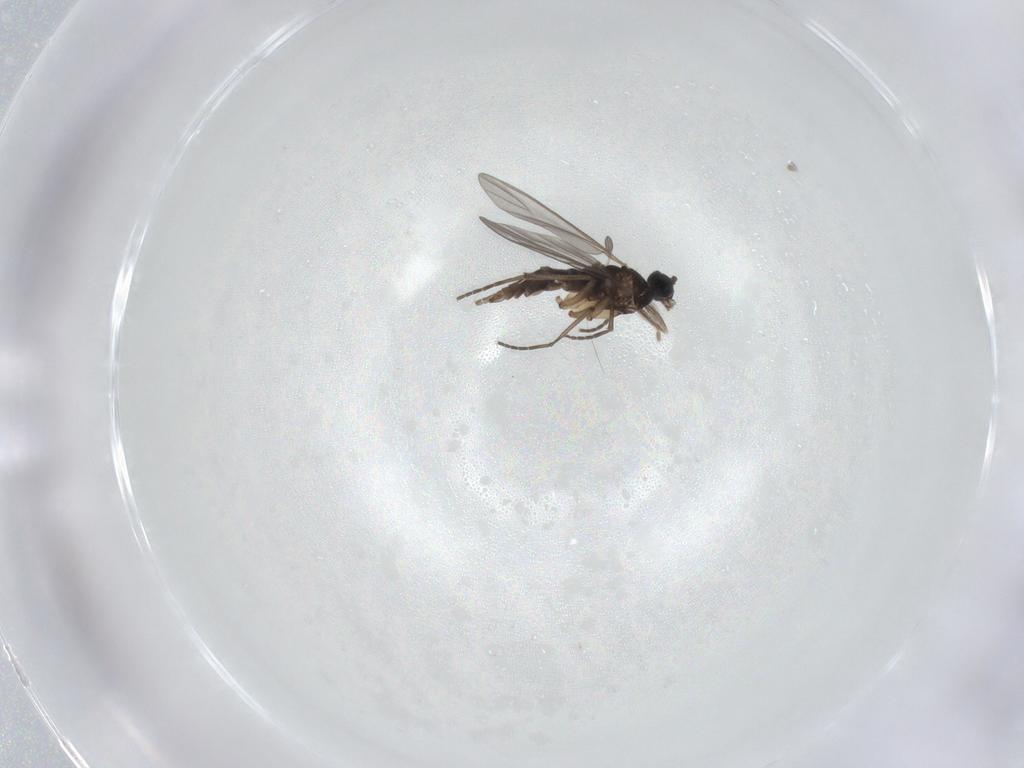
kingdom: Animalia
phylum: Arthropoda
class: Insecta
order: Diptera
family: Sciaridae
